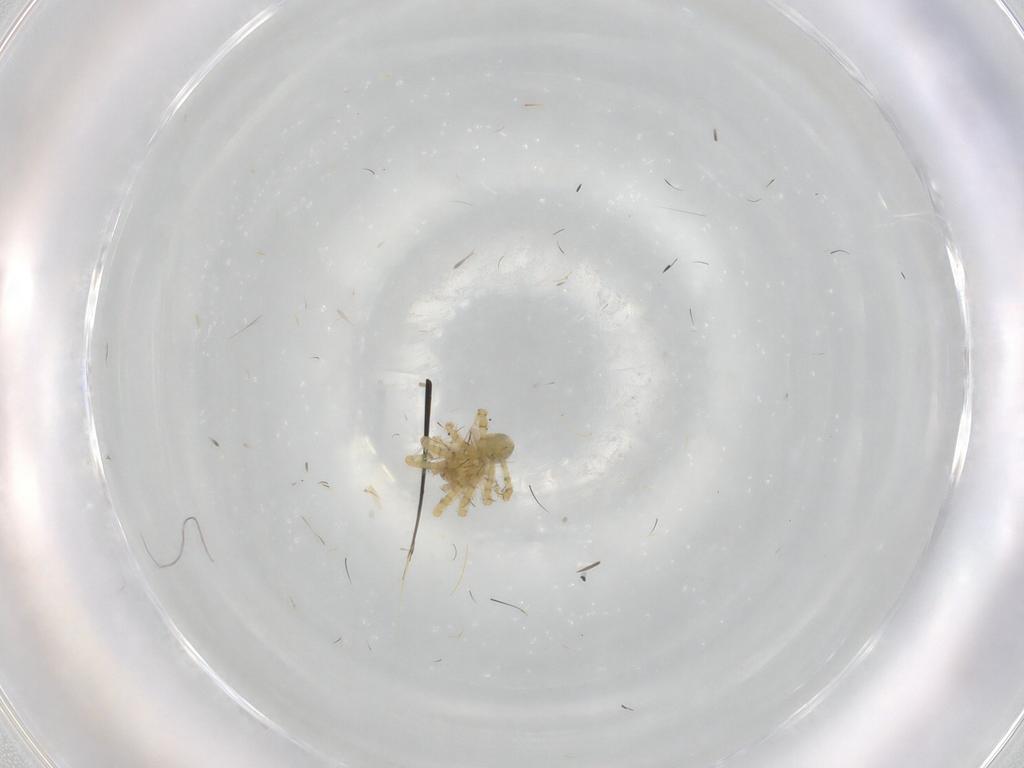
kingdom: Animalia
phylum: Arthropoda
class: Arachnida
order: Araneae
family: Theridiidae
